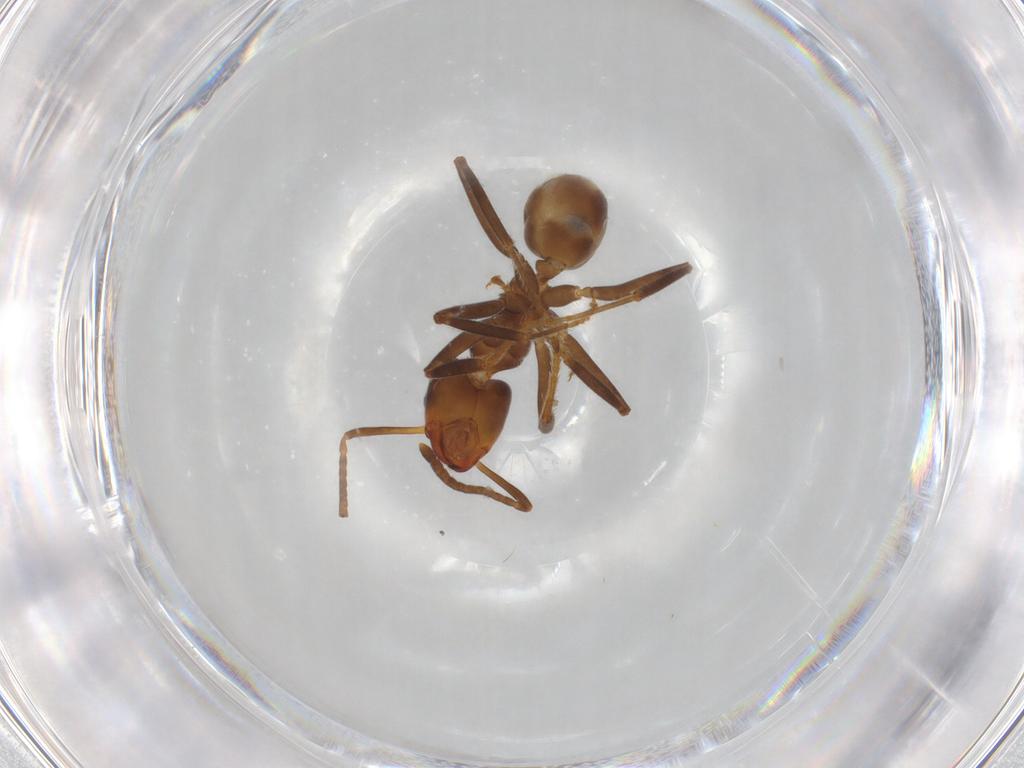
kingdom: Animalia
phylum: Arthropoda
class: Insecta
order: Hymenoptera
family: Formicidae
